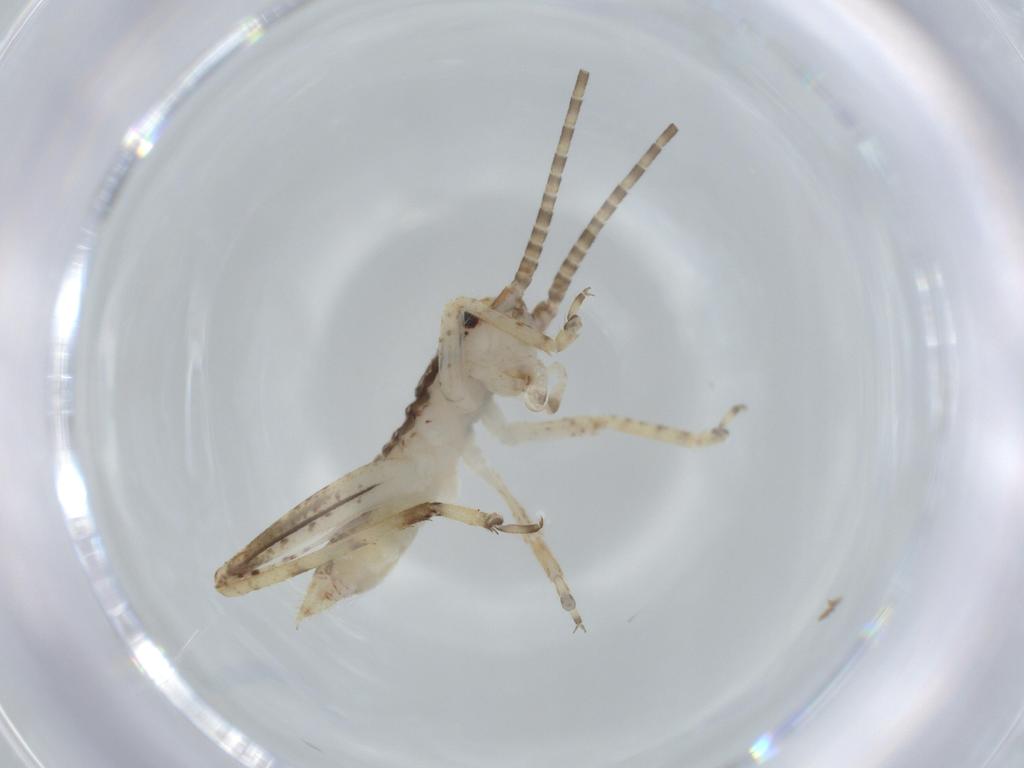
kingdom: Animalia
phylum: Arthropoda
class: Insecta
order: Orthoptera
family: Gryllidae
